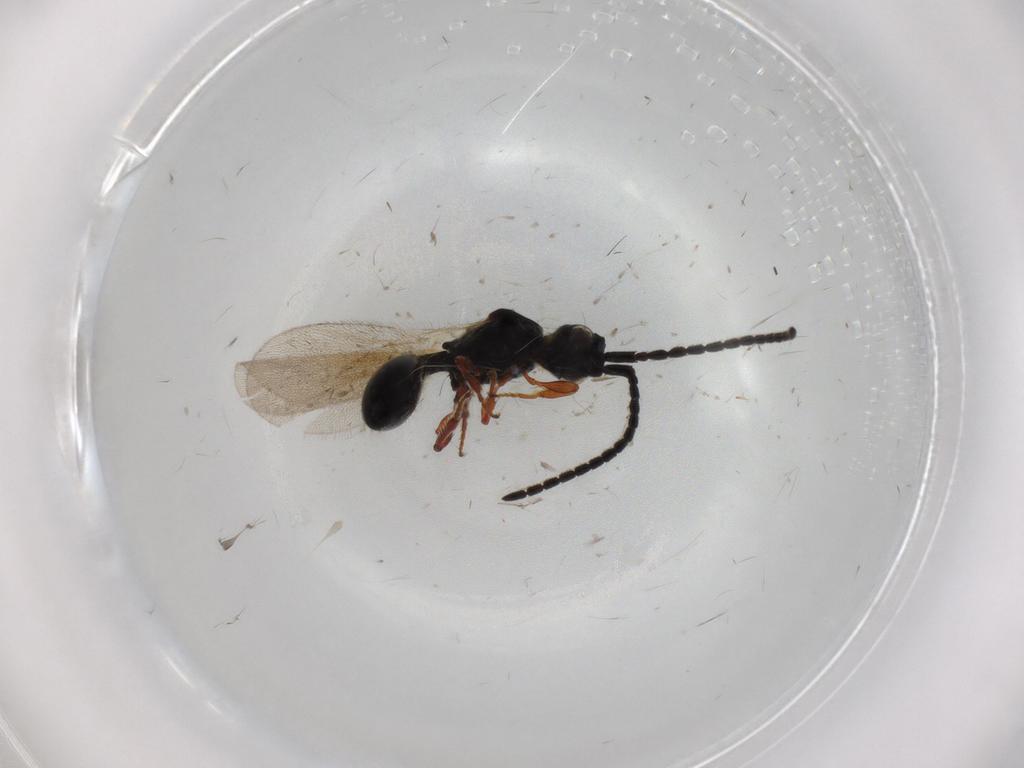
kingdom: Animalia
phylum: Arthropoda
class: Insecta
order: Hymenoptera
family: Diapriidae
